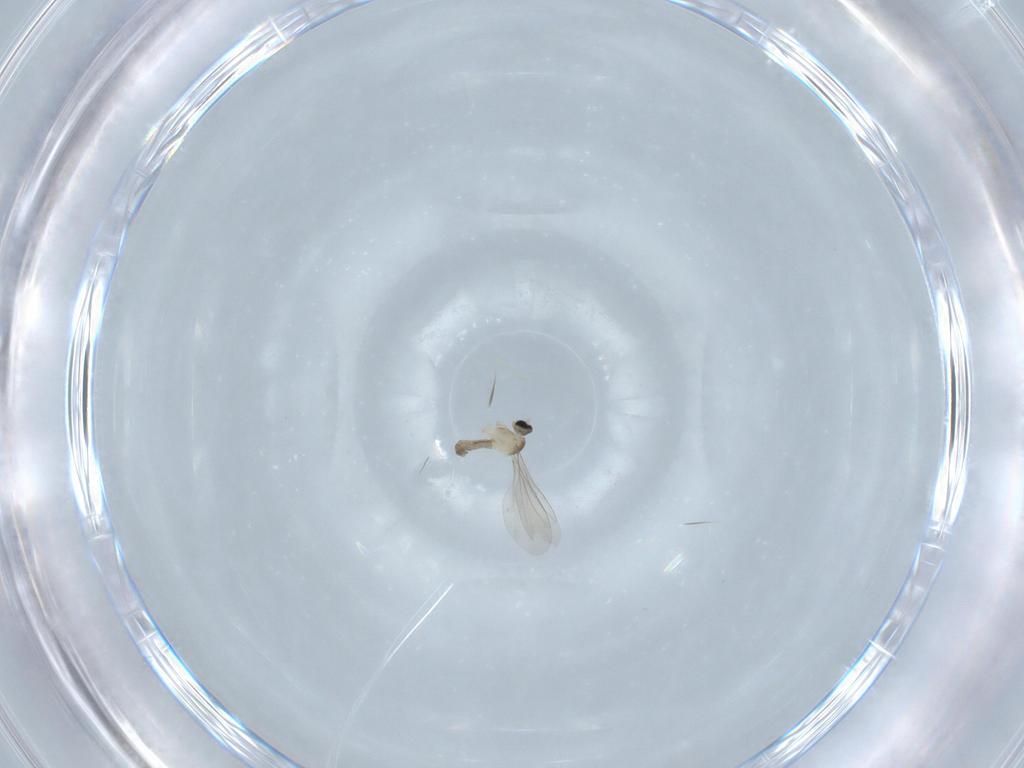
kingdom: Animalia
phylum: Arthropoda
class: Insecta
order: Diptera
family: Cecidomyiidae
